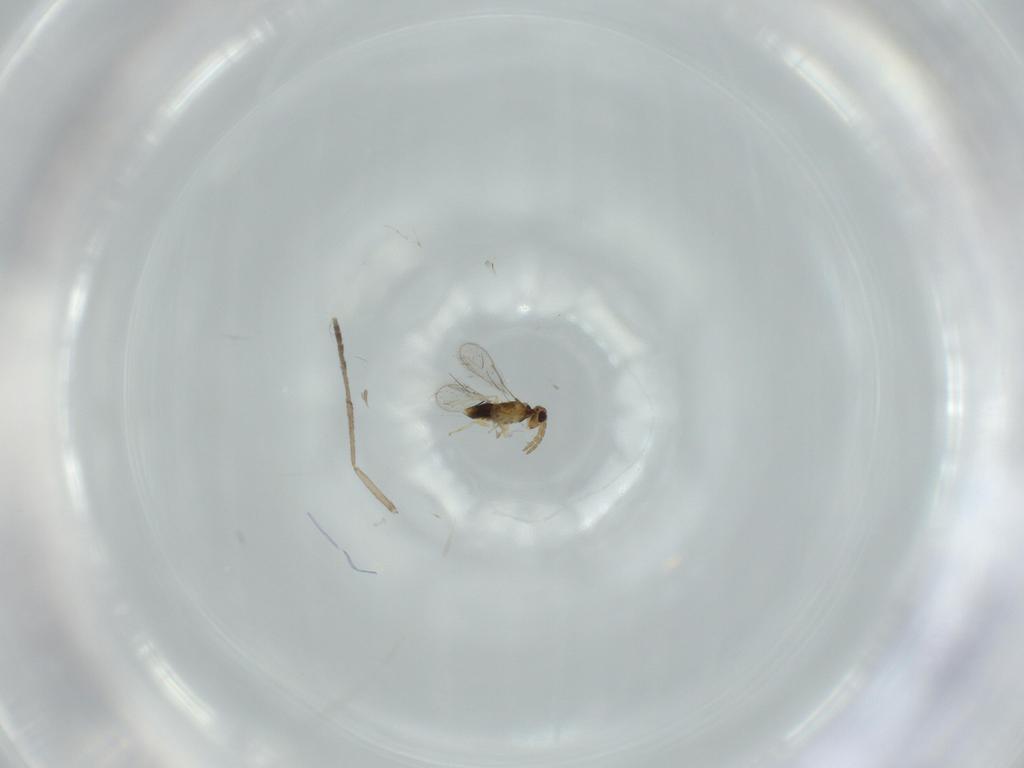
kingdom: Animalia
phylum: Arthropoda
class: Insecta
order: Hymenoptera
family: Aphelinidae
